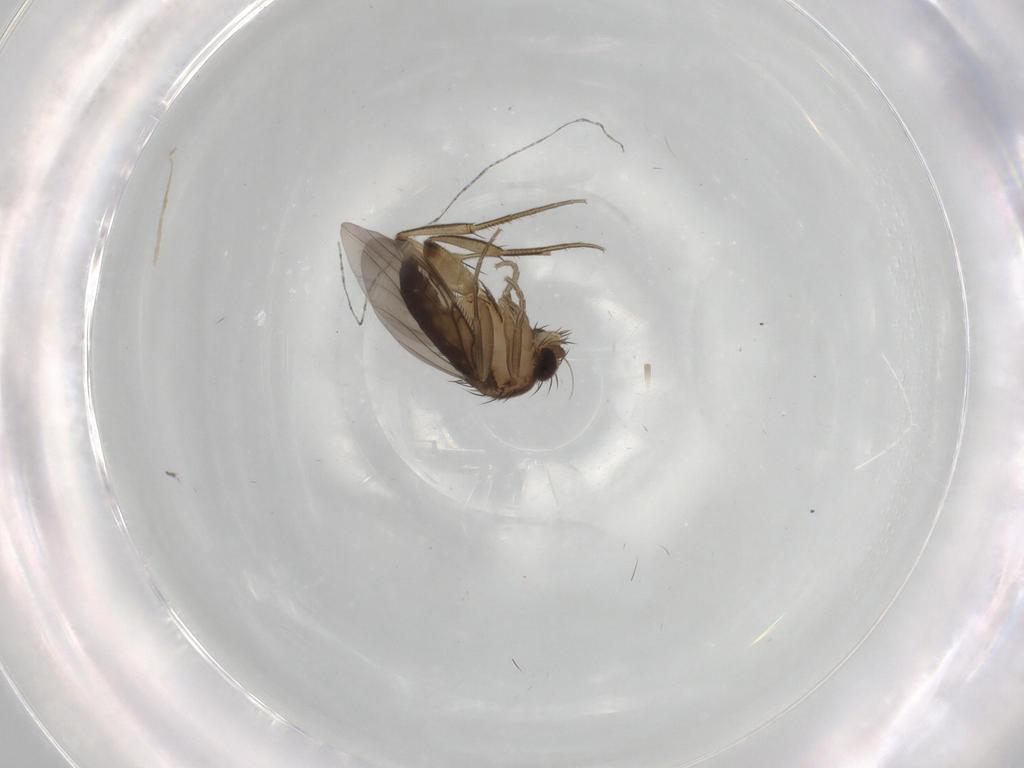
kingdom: Animalia
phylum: Arthropoda
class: Insecta
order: Diptera
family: Phoridae
